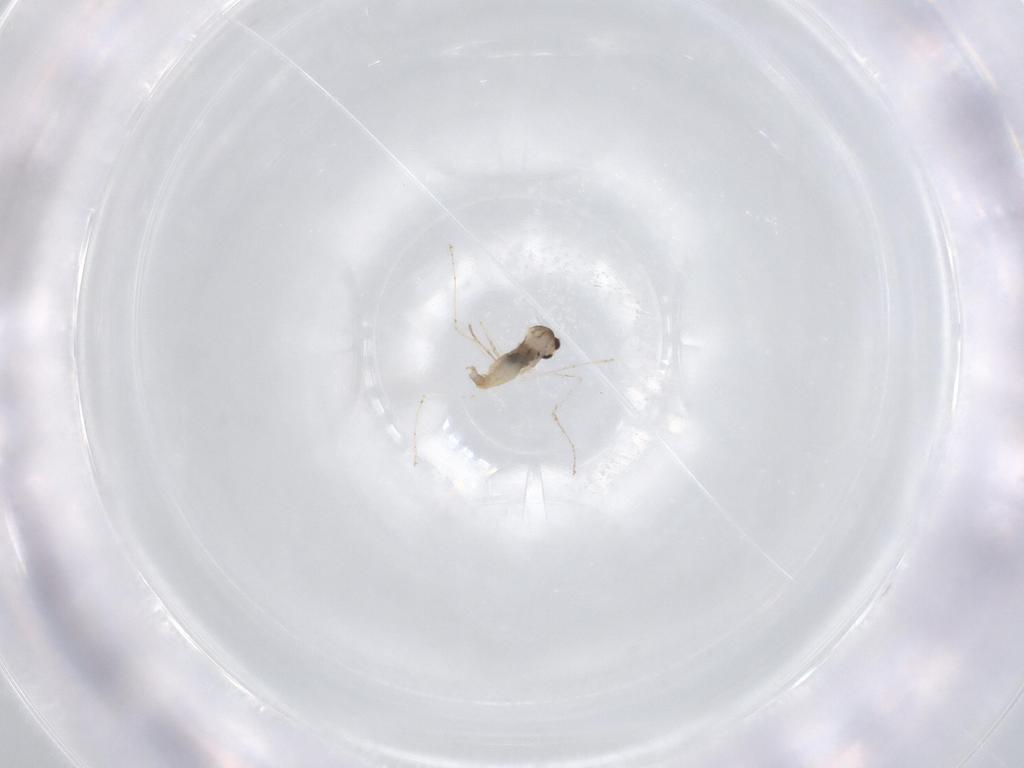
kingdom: Animalia
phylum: Arthropoda
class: Insecta
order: Diptera
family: Cecidomyiidae
